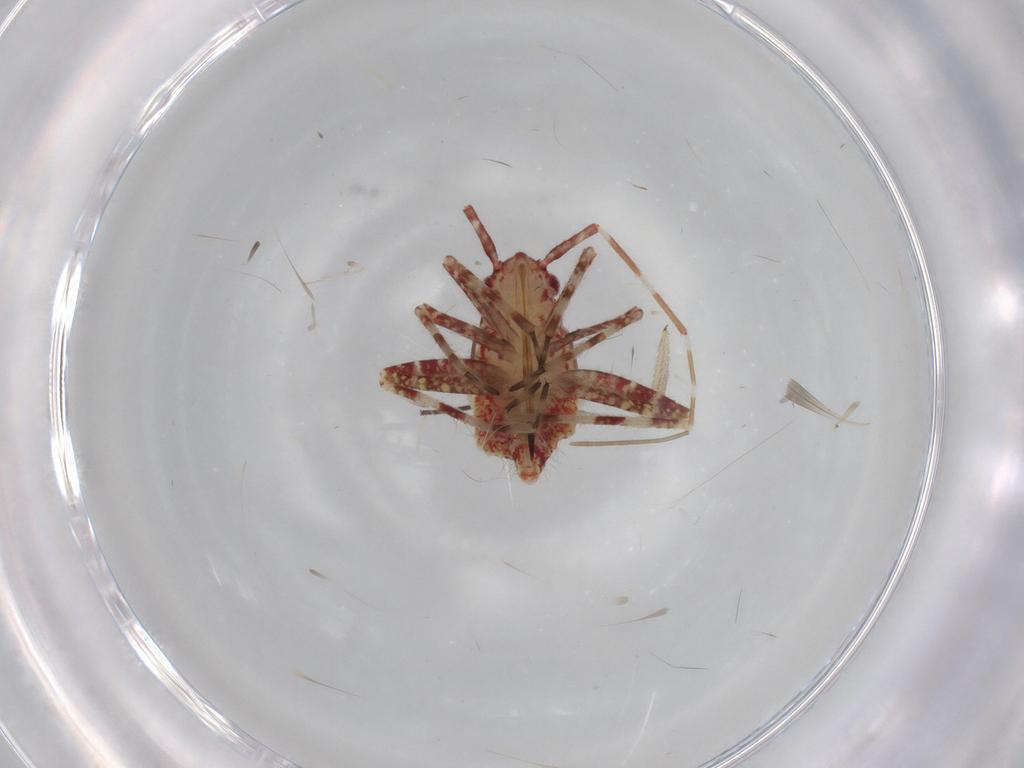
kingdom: Animalia
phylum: Arthropoda
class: Insecta
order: Hemiptera
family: Miridae
